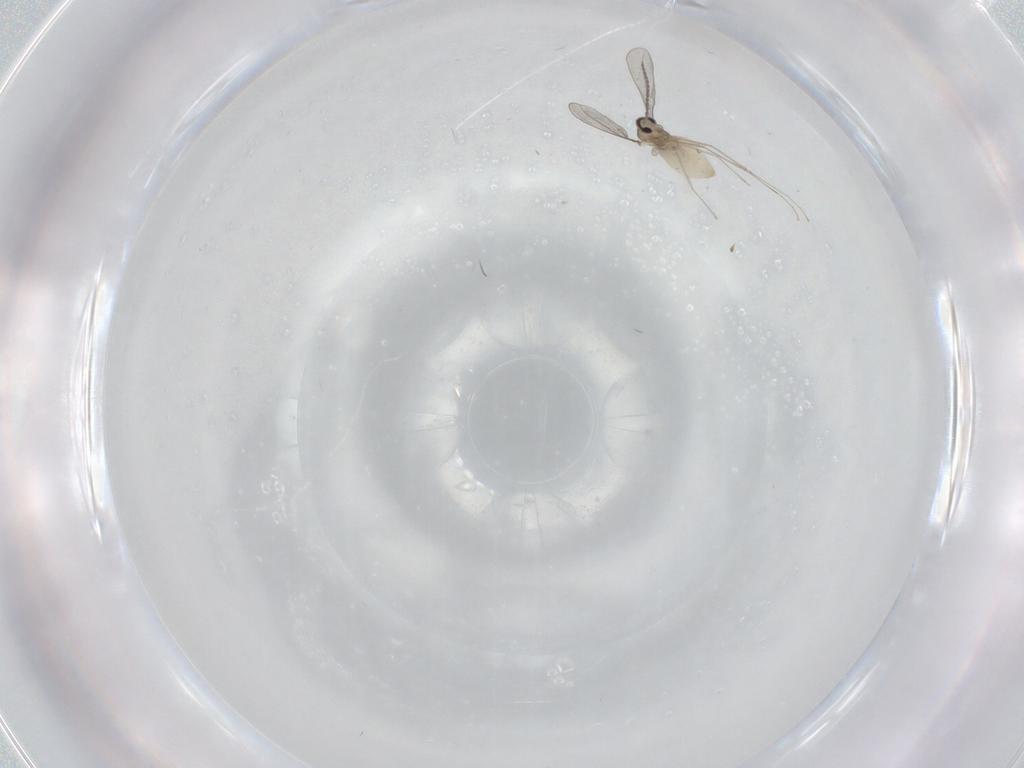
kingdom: Animalia
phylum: Arthropoda
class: Insecta
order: Diptera
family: Cecidomyiidae
